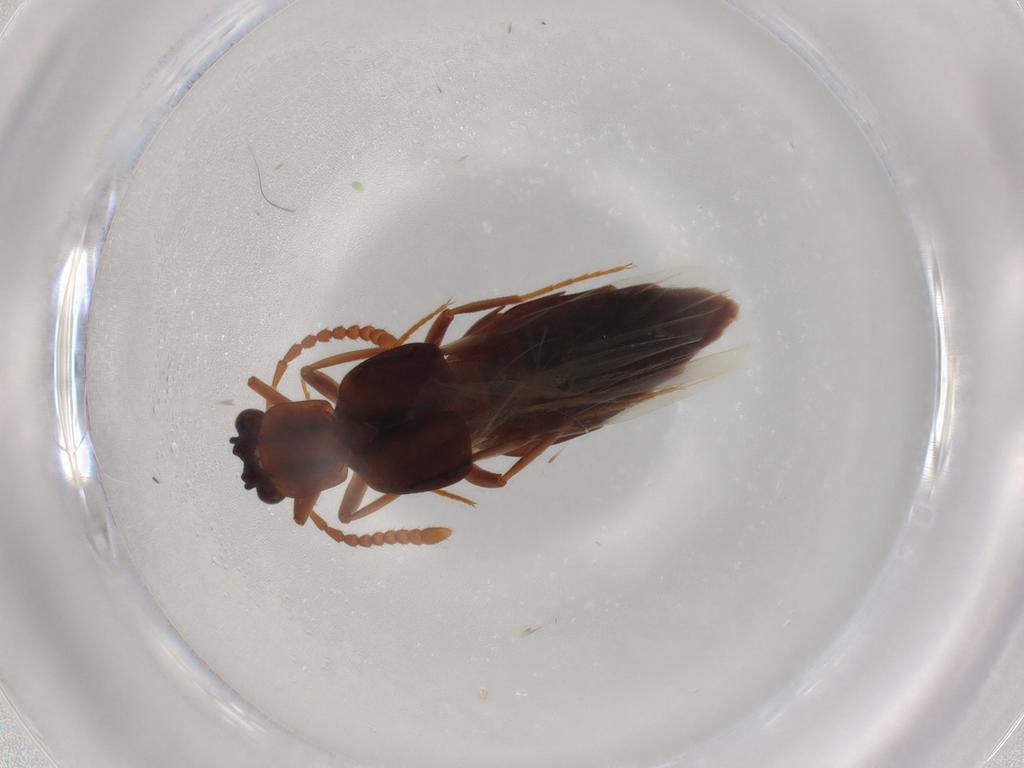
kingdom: Animalia
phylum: Arthropoda
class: Insecta
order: Coleoptera
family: Staphylinidae
